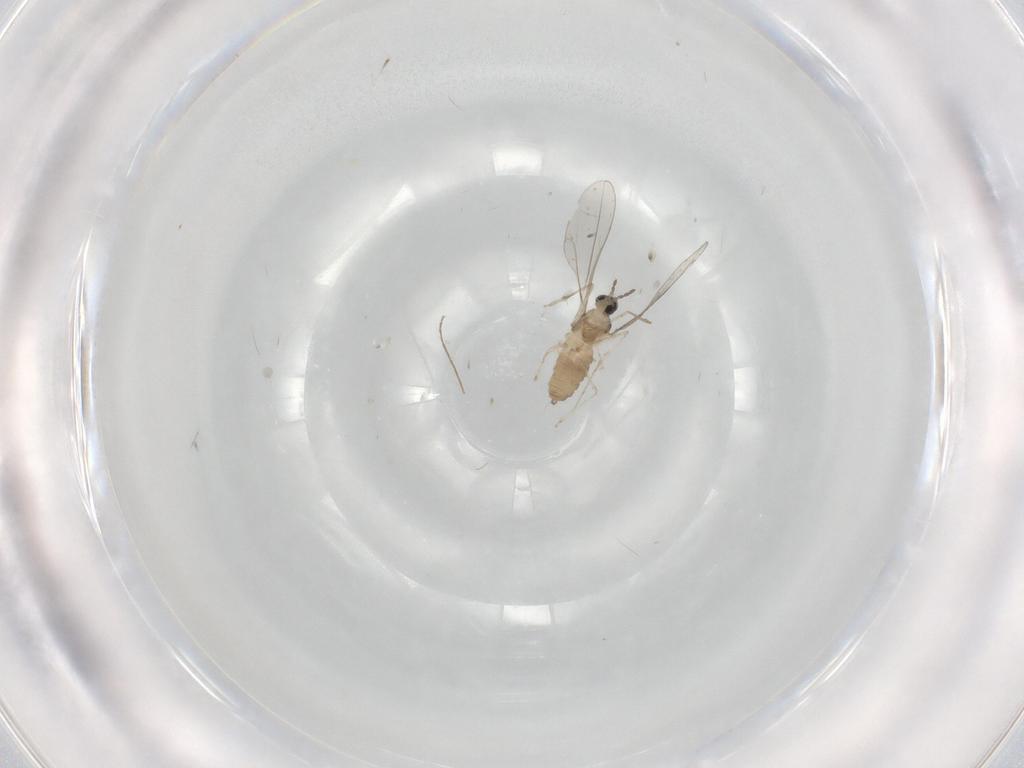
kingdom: Animalia
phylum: Arthropoda
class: Insecta
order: Diptera
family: Cecidomyiidae
